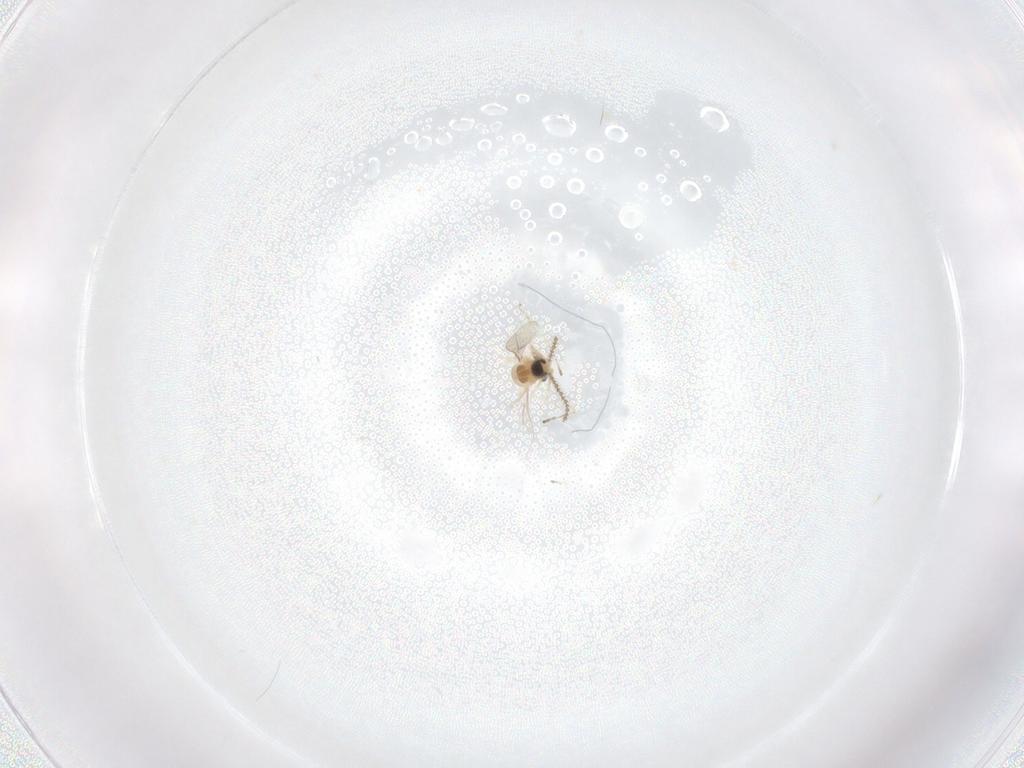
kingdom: Animalia
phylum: Arthropoda
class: Insecta
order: Diptera
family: Cecidomyiidae
